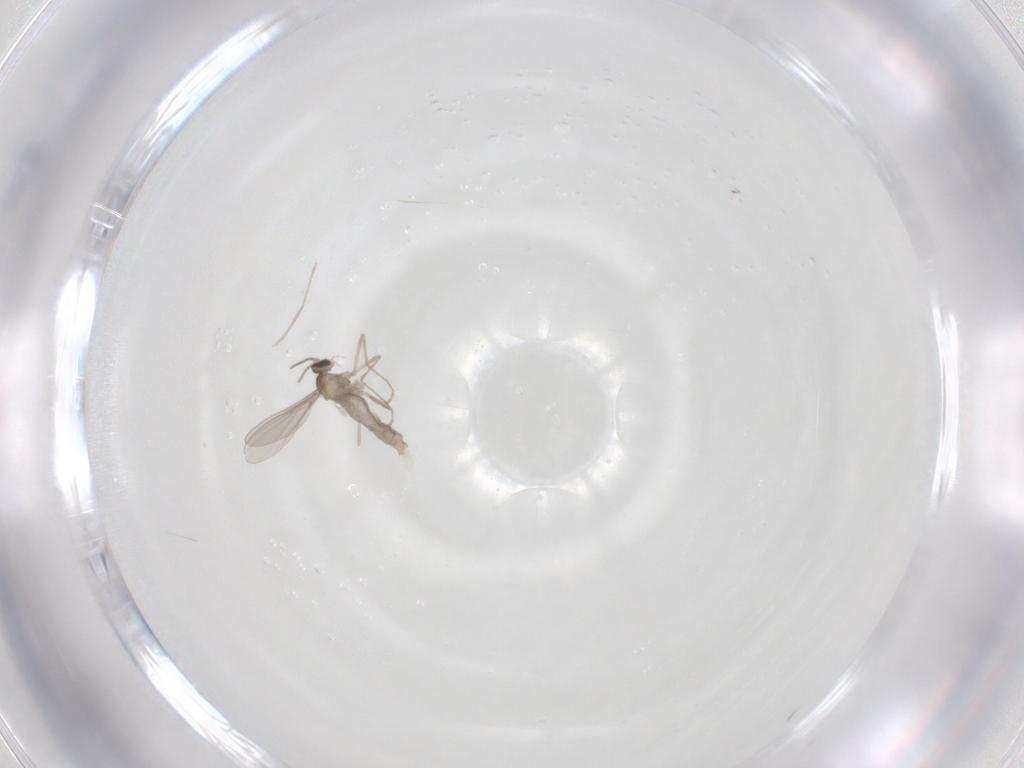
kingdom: Animalia
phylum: Arthropoda
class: Insecta
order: Diptera
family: Cecidomyiidae
